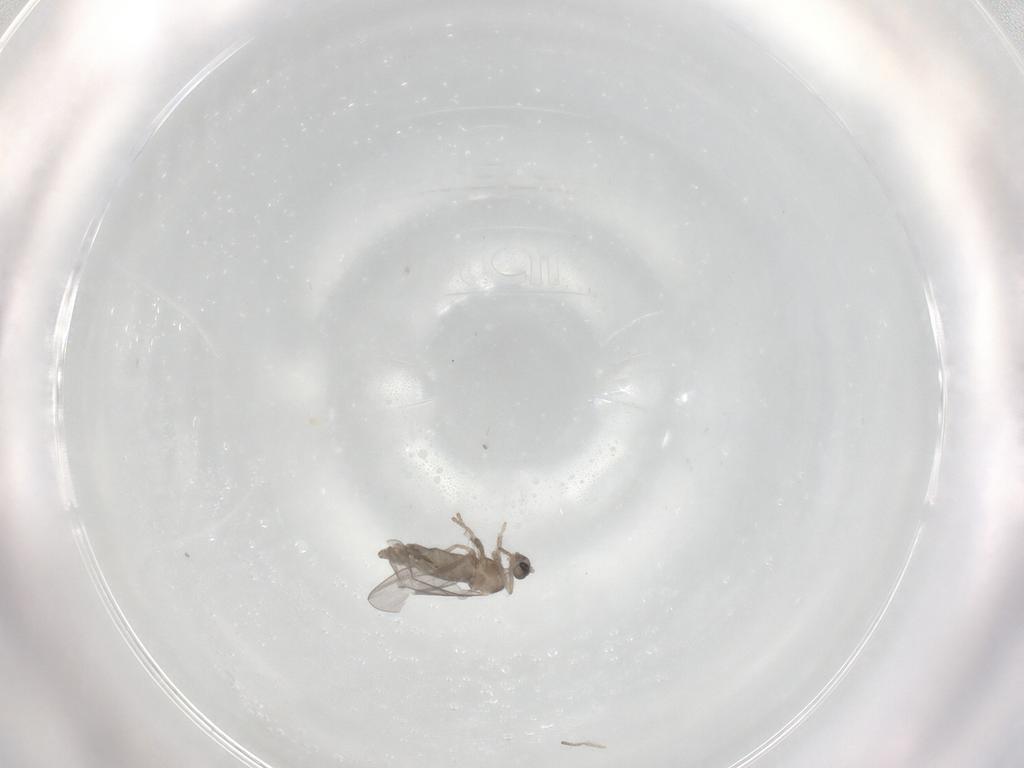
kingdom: Animalia
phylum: Arthropoda
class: Insecta
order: Diptera
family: Cecidomyiidae
